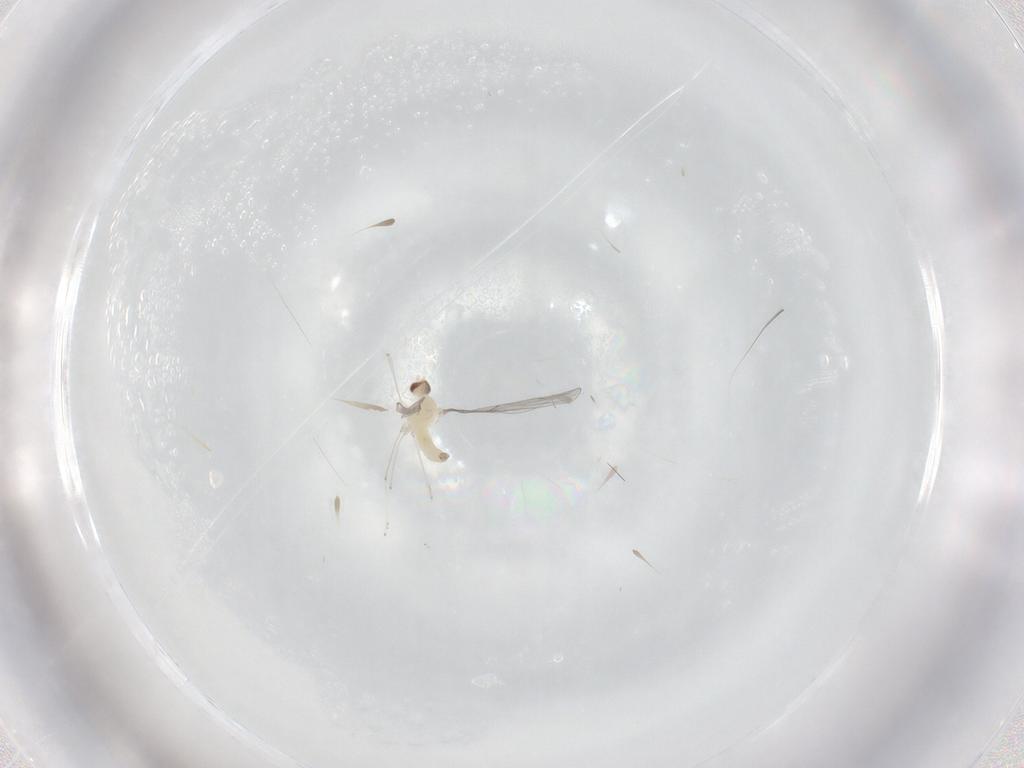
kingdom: Animalia
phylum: Arthropoda
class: Insecta
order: Diptera
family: Cecidomyiidae
